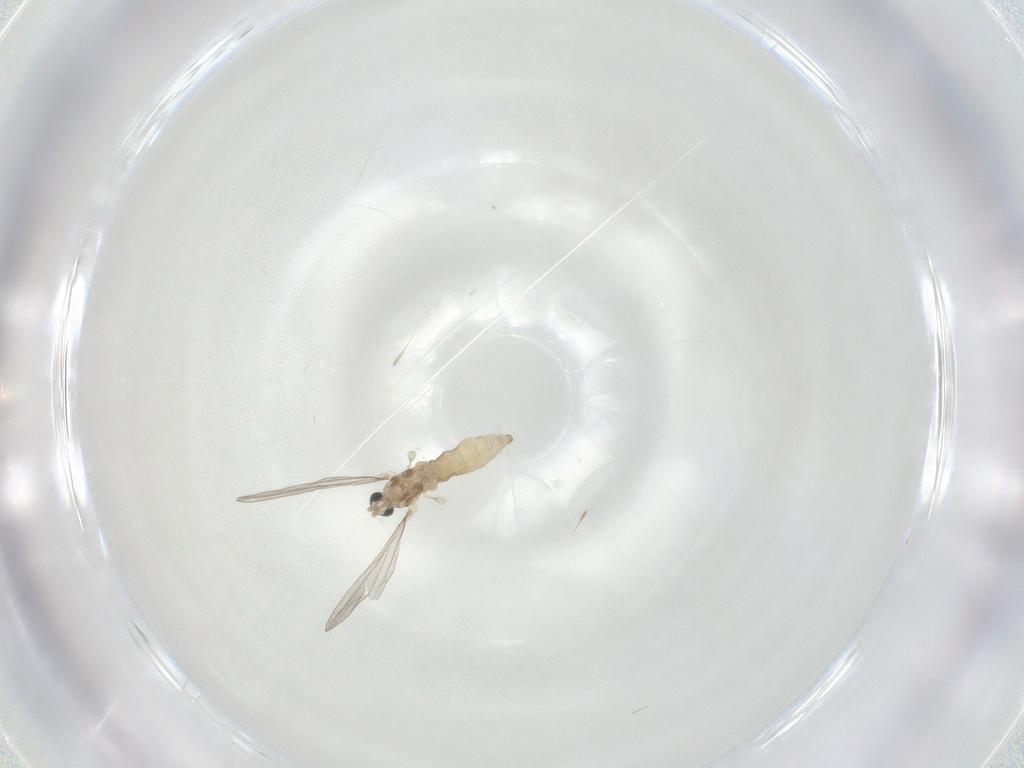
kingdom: Animalia
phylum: Arthropoda
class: Insecta
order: Diptera
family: Cecidomyiidae
